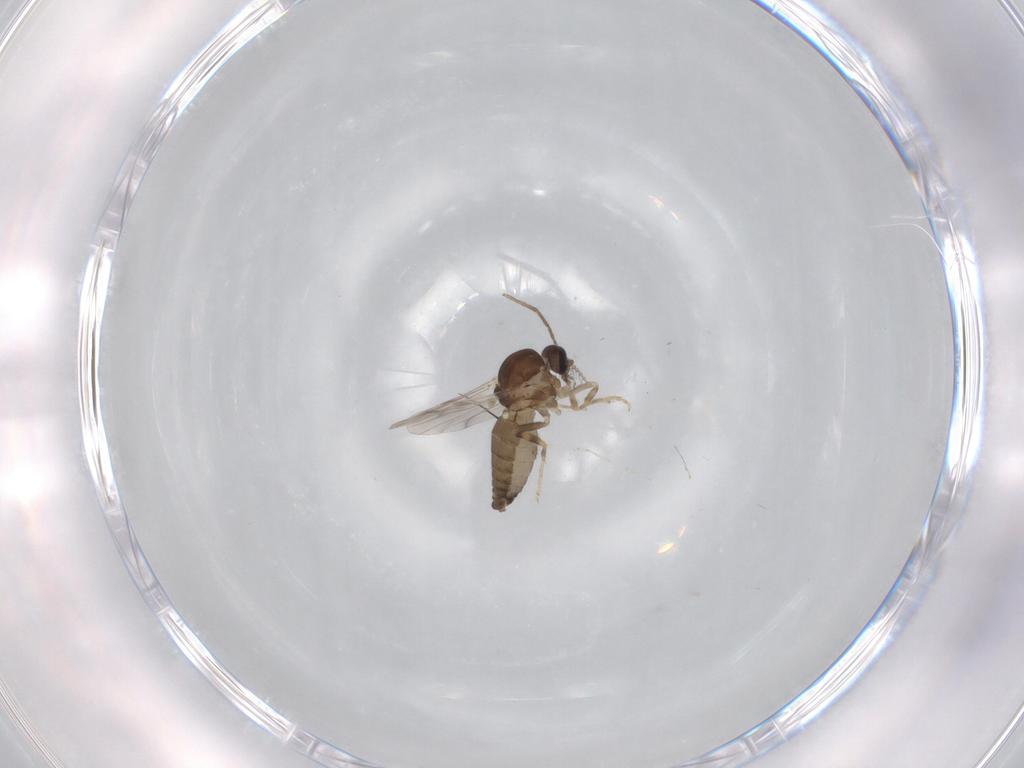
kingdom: Animalia
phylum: Arthropoda
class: Insecta
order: Diptera
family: Ceratopogonidae
